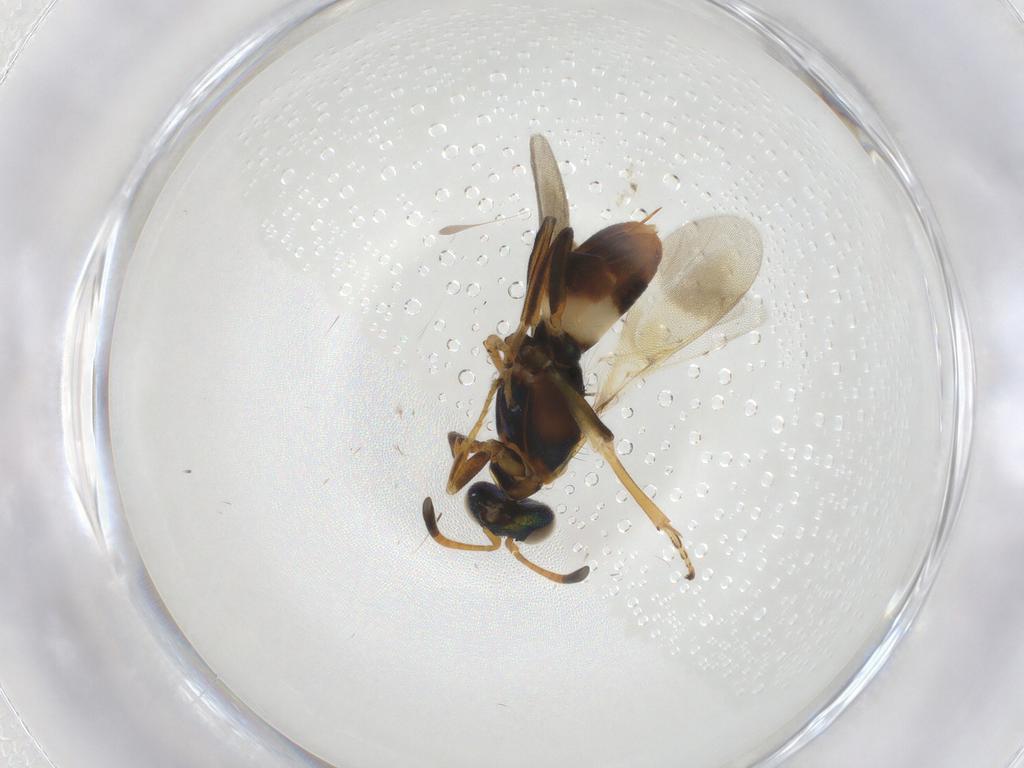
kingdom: Animalia
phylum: Arthropoda
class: Insecta
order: Hymenoptera
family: Eupelmidae
